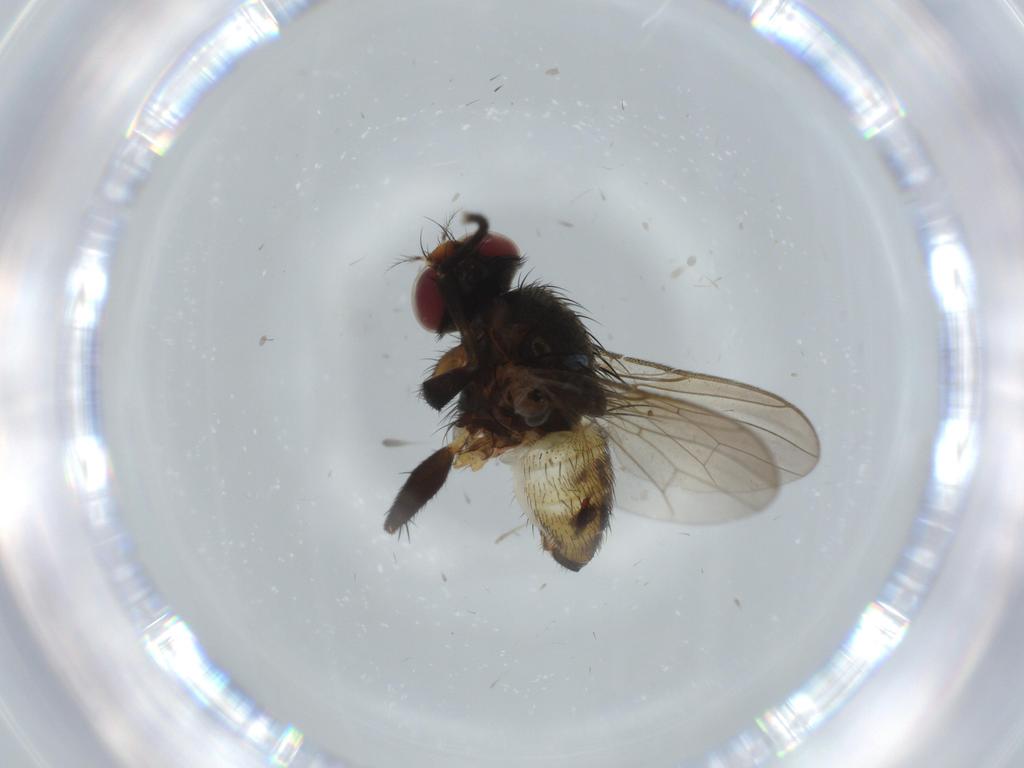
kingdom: Animalia
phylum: Arthropoda
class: Insecta
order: Diptera
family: Anthomyiidae
